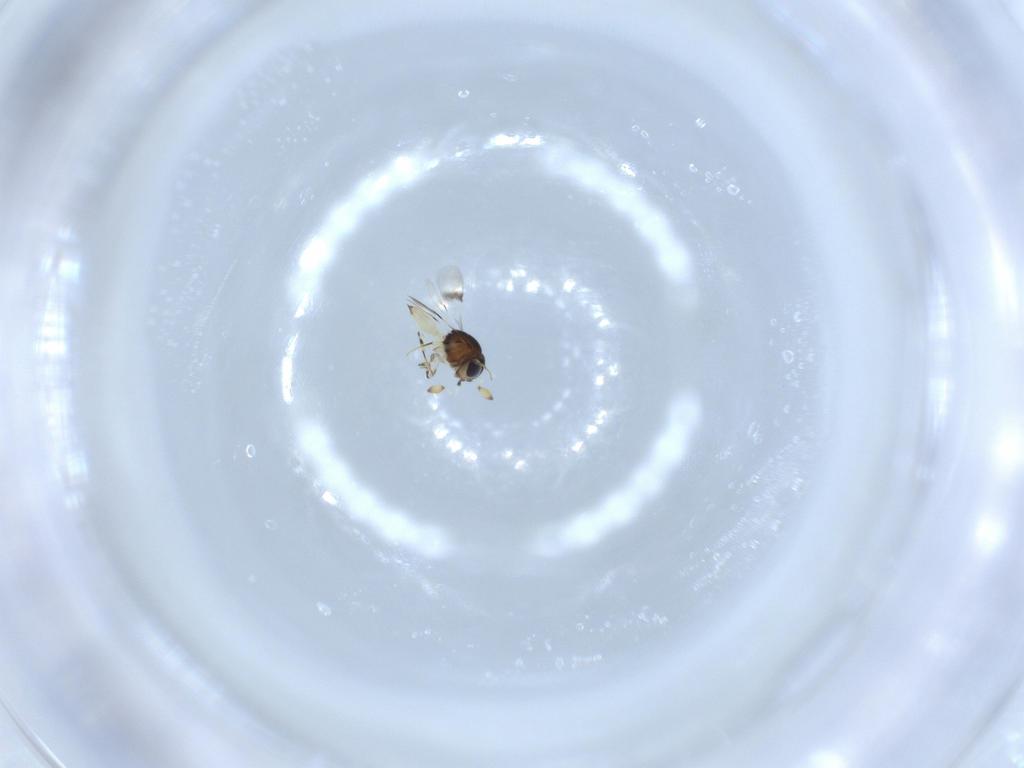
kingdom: Animalia
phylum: Arthropoda
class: Insecta
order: Hymenoptera
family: Scelionidae
